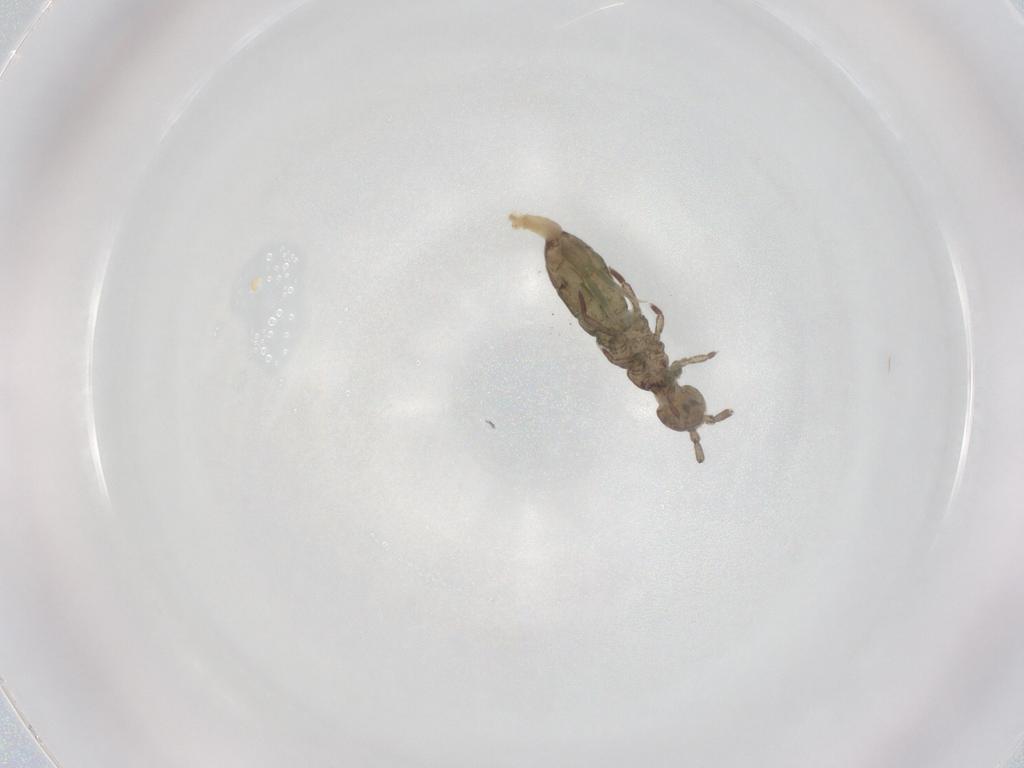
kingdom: Animalia
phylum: Arthropoda
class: Collembola
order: Entomobryomorpha
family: Isotomidae
